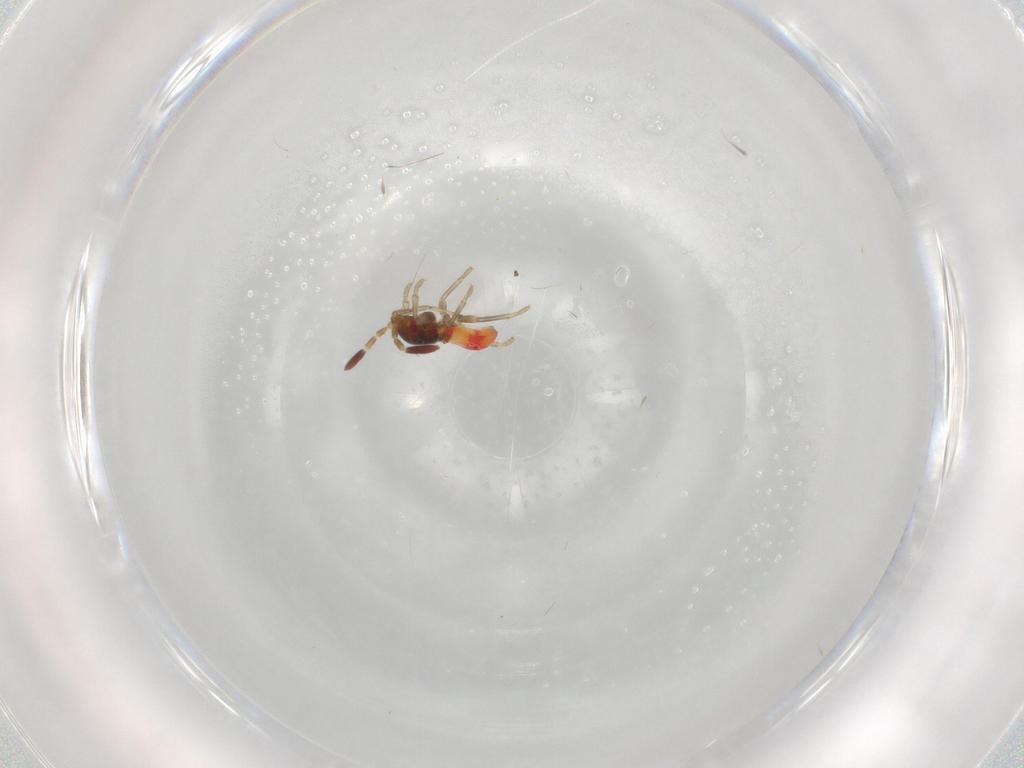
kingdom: Animalia
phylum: Arthropoda
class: Insecta
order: Hemiptera
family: Rhyparochromidae
